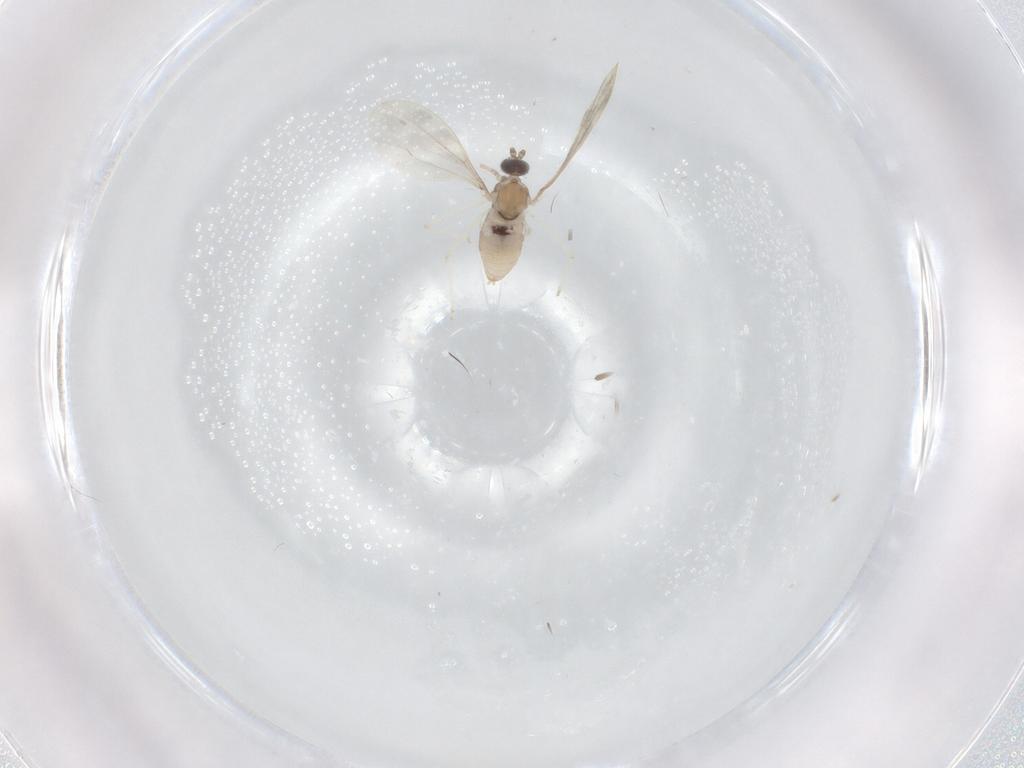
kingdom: Animalia
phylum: Arthropoda
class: Insecta
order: Diptera
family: Cecidomyiidae
